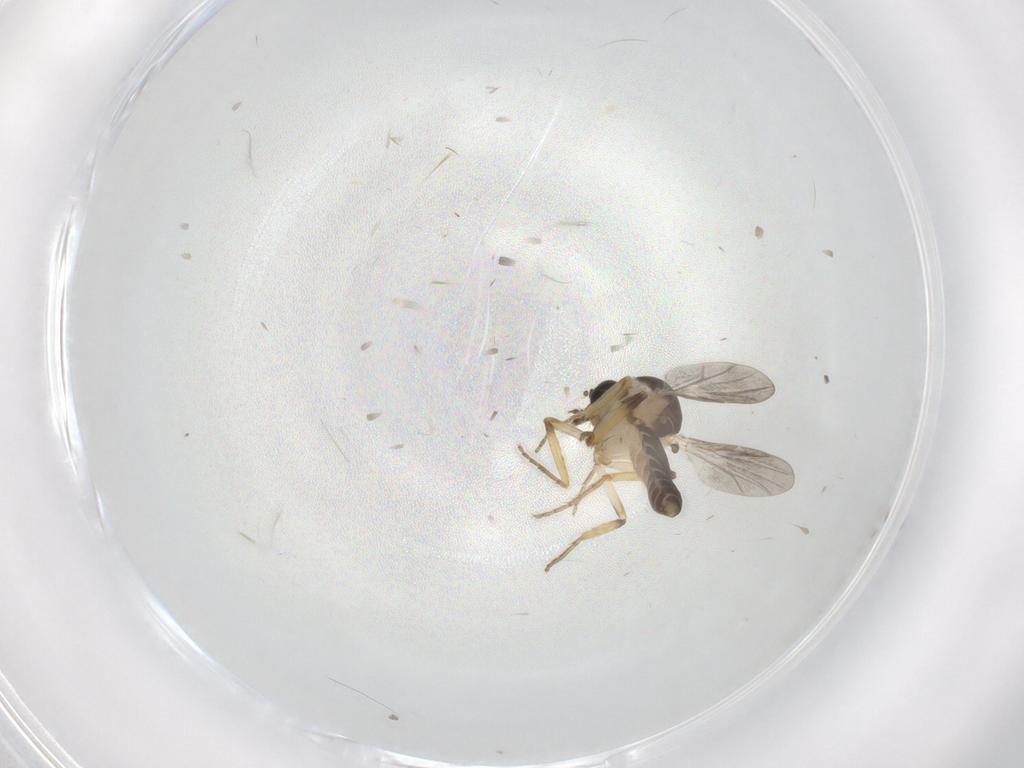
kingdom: Animalia
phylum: Arthropoda
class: Insecta
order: Diptera
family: Ceratopogonidae
